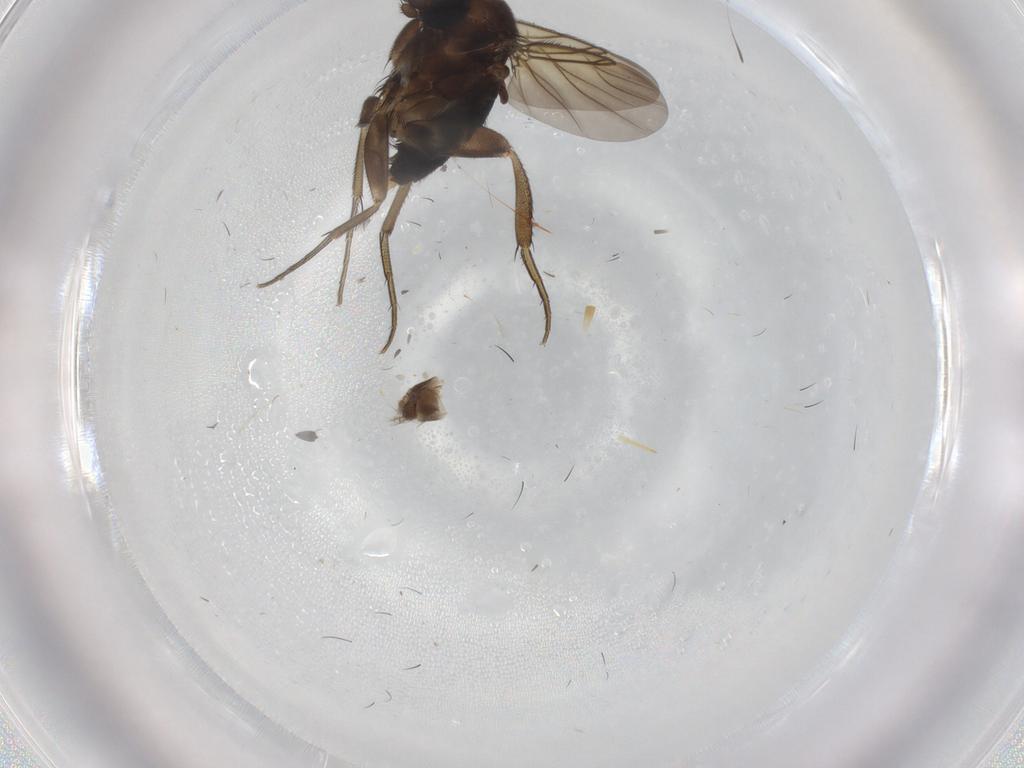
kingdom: Animalia
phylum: Arthropoda
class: Insecta
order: Diptera
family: Phoridae
